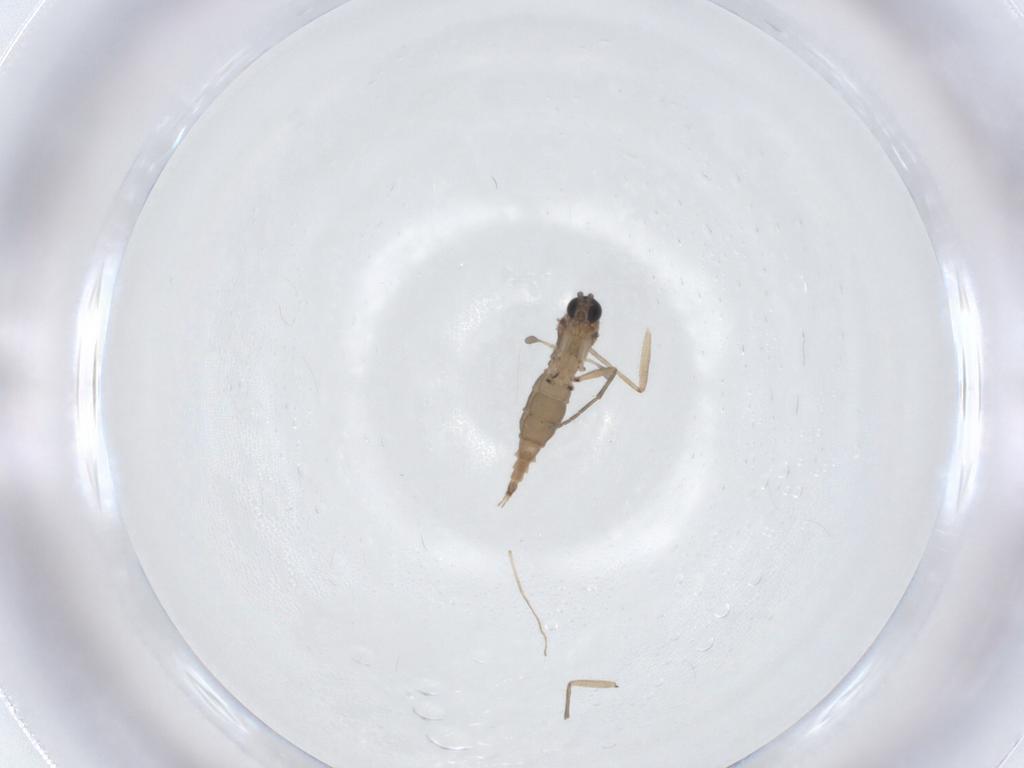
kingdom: Animalia
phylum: Arthropoda
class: Insecta
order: Diptera
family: Sciaridae
